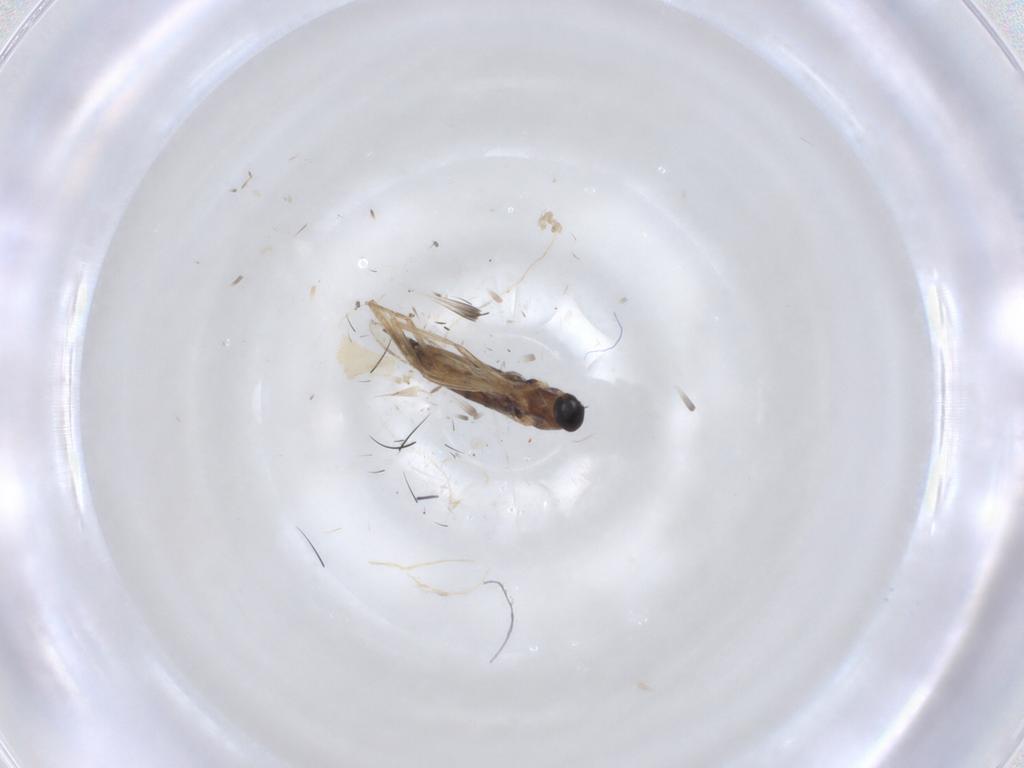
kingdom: Animalia
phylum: Arthropoda
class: Insecta
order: Diptera
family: Cecidomyiidae
